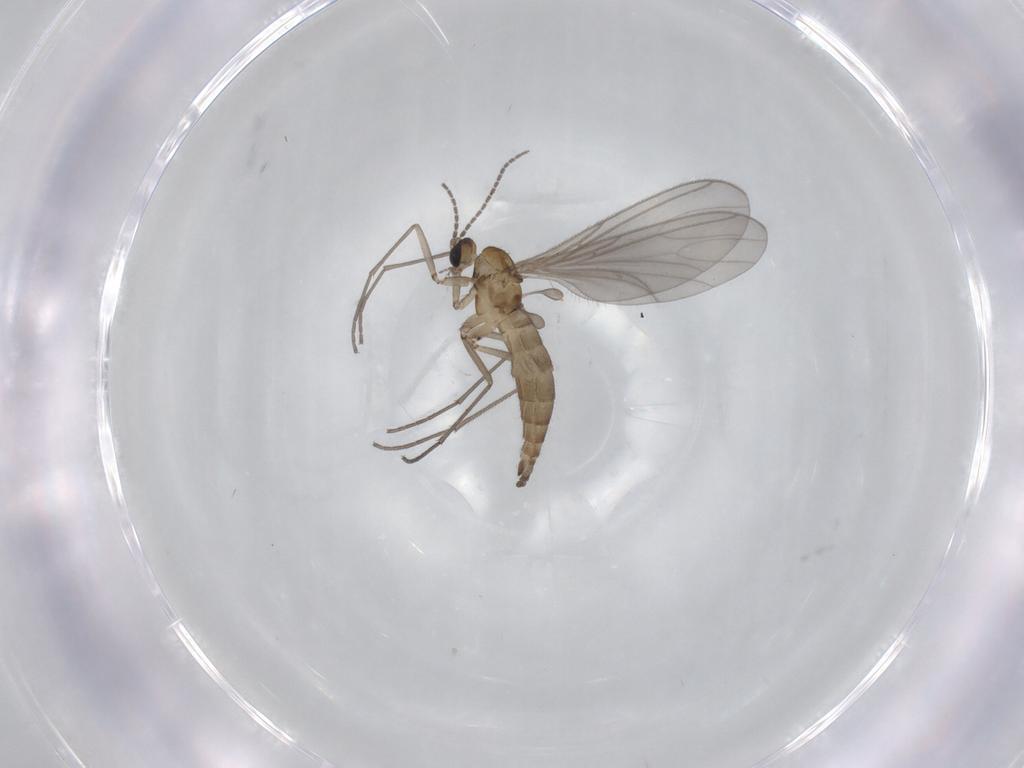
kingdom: Animalia
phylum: Arthropoda
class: Insecta
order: Diptera
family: Sciaridae
